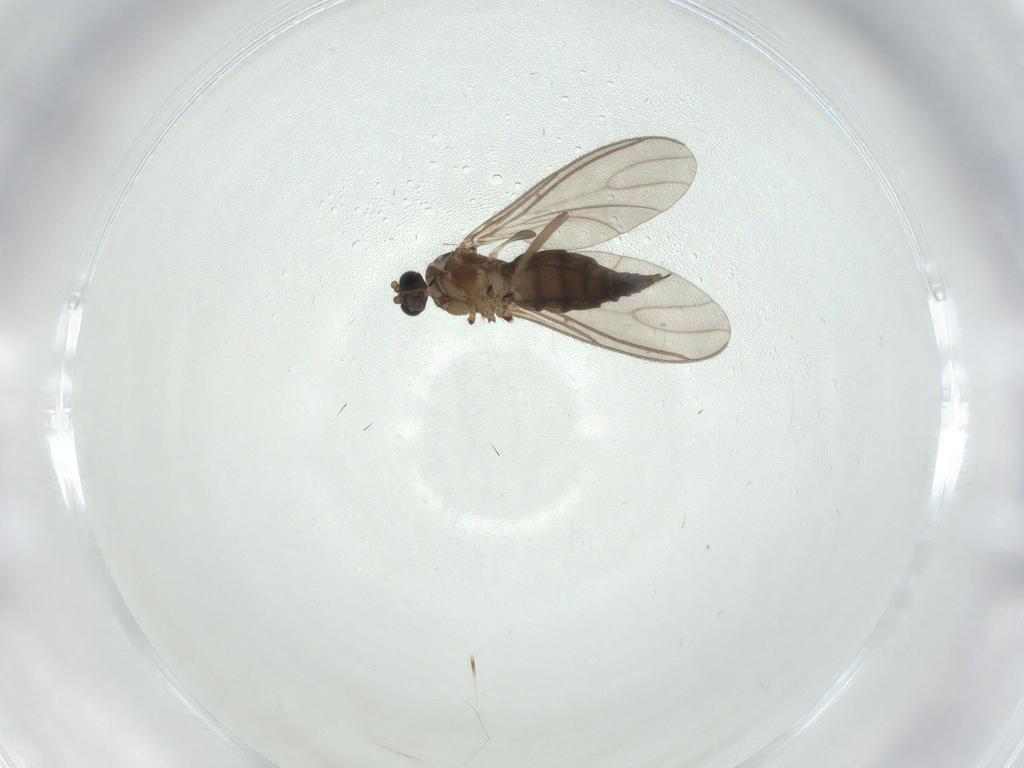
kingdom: Animalia
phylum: Arthropoda
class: Insecta
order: Diptera
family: Sciaridae
